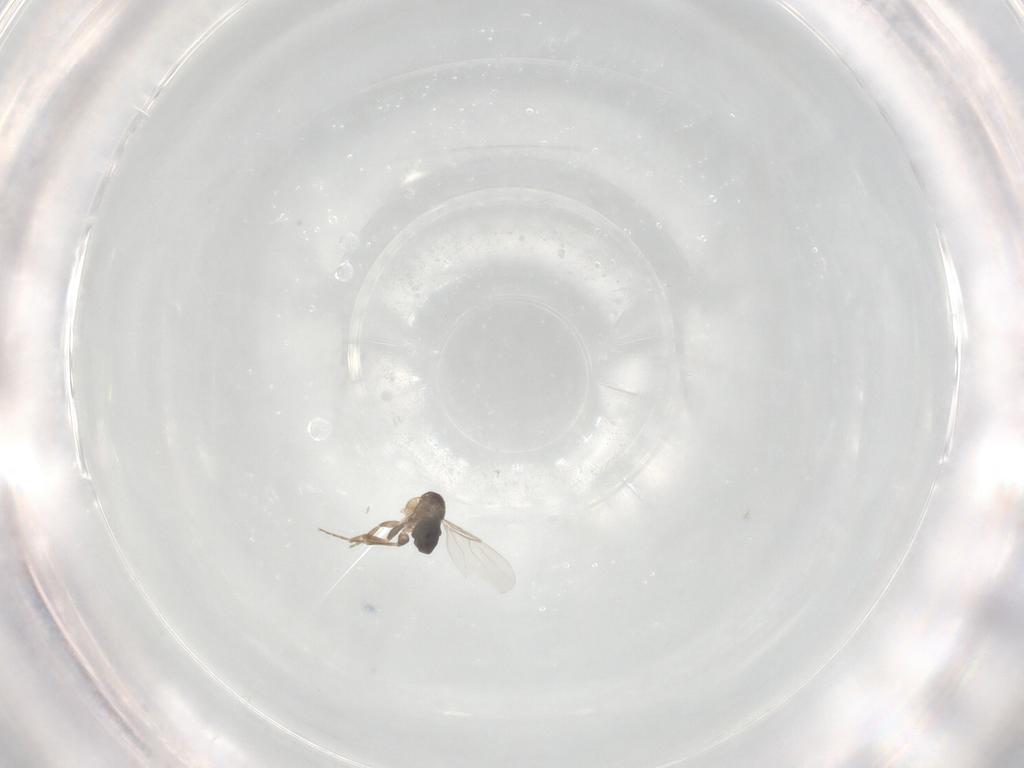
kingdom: Animalia
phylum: Arthropoda
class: Insecta
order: Diptera
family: Phoridae
